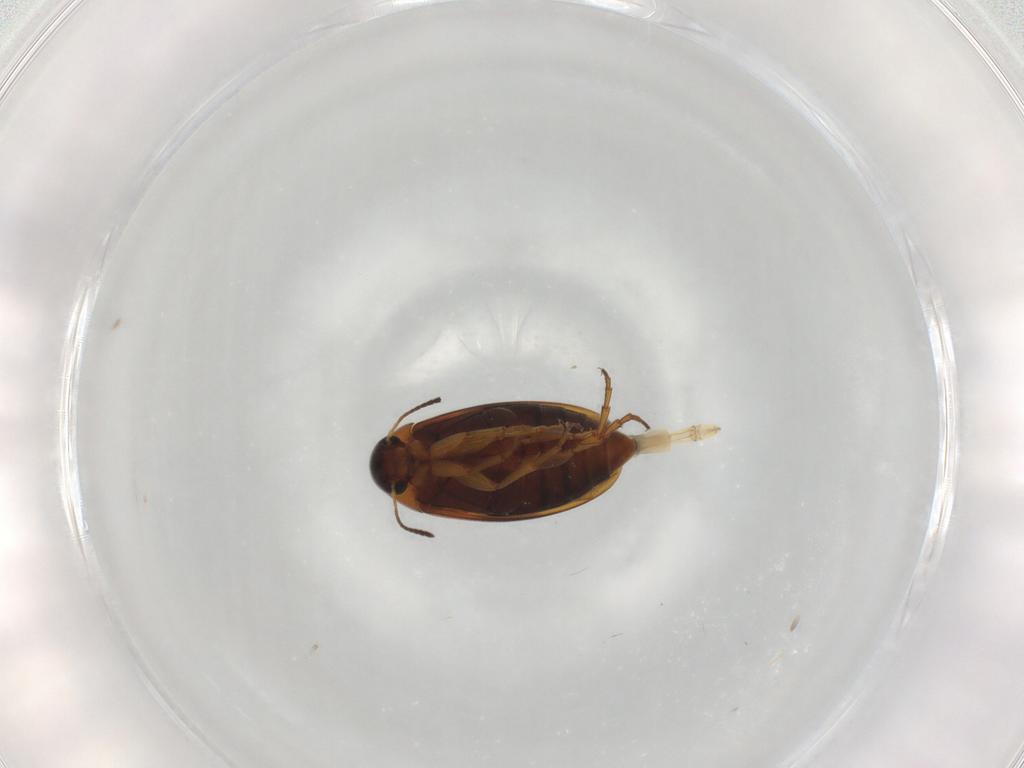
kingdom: Animalia
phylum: Arthropoda
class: Insecta
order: Coleoptera
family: Scraptiidae
